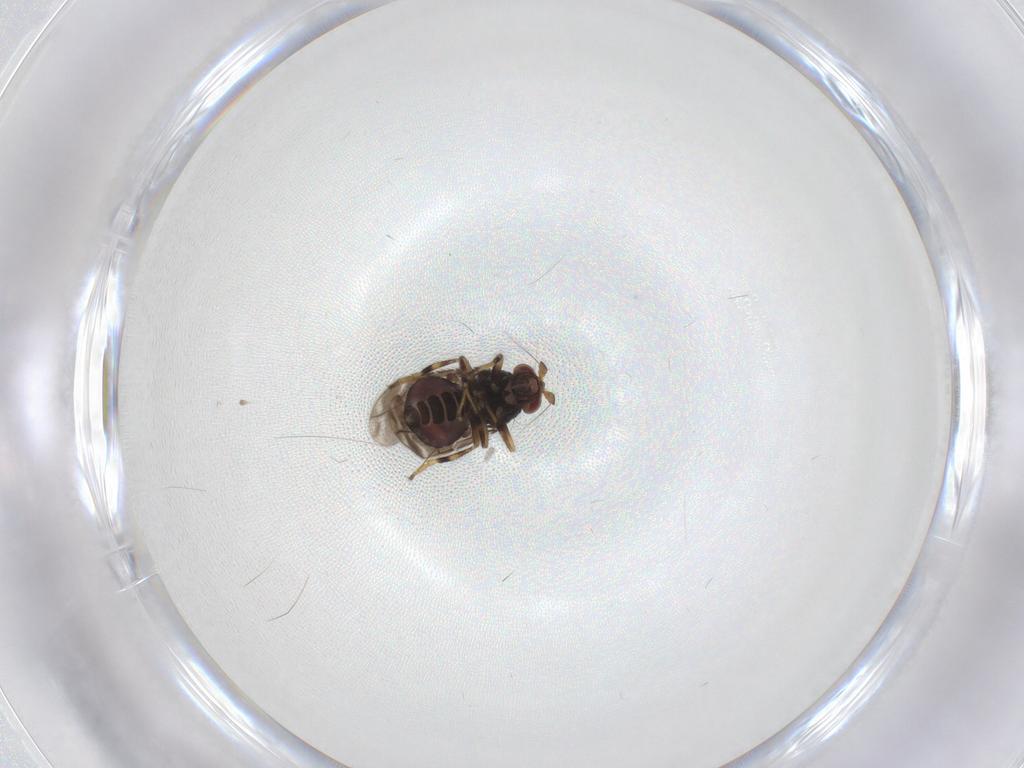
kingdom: Animalia
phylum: Arthropoda
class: Insecta
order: Diptera
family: Sphaeroceridae
